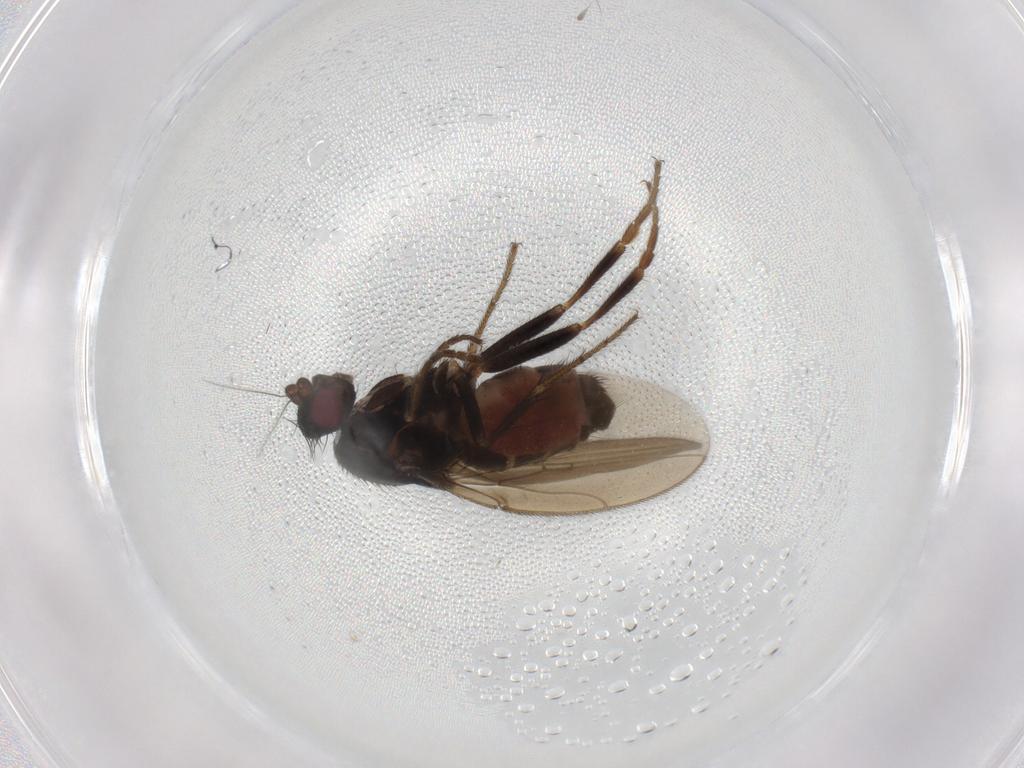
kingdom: Animalia
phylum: Arthropoda
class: Insecta
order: Diptera
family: Sphaeroceridae
